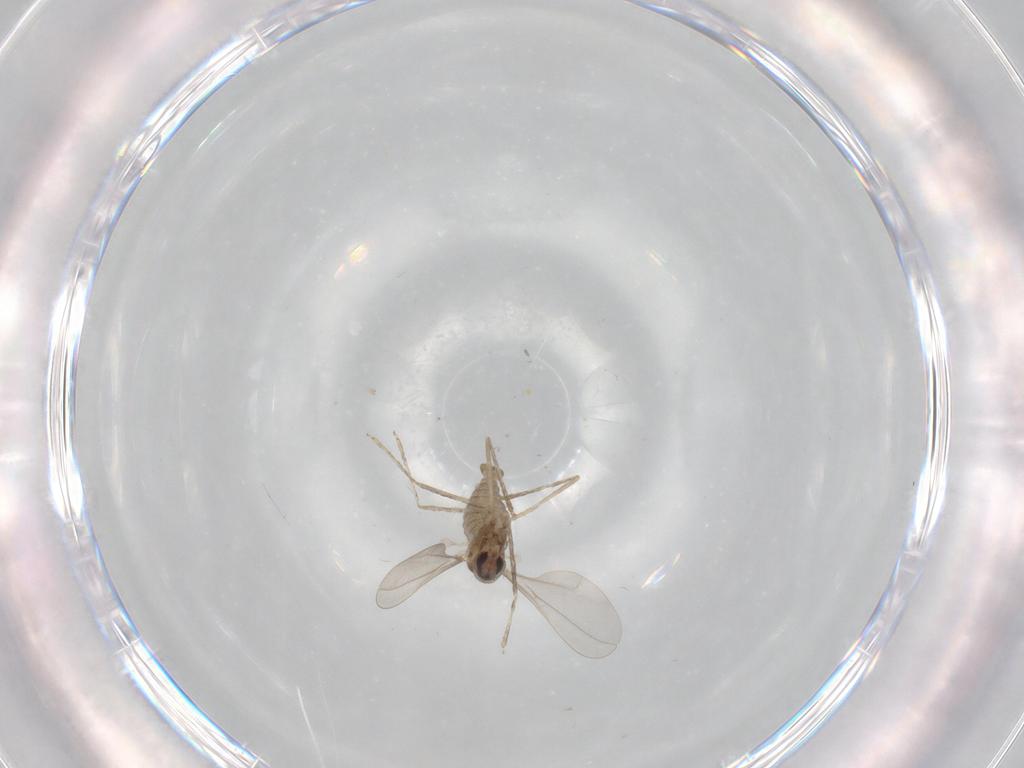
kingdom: Animalia
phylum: Arthropoda
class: Insecta
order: Diptera
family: Cecidomyiidae
